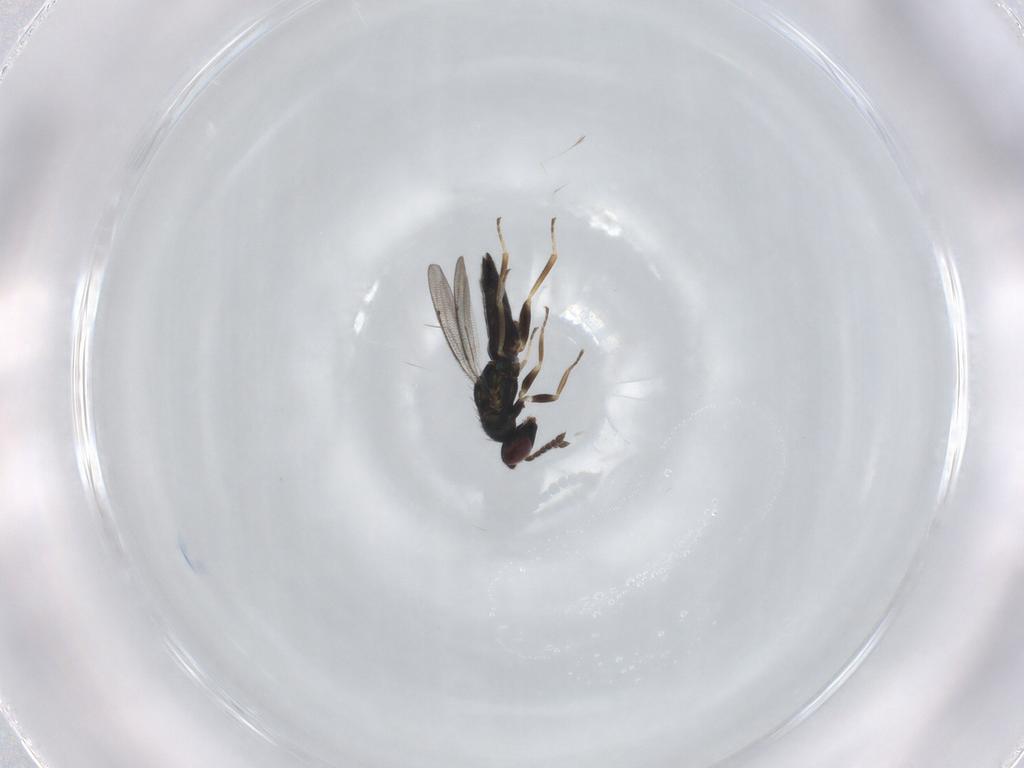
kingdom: Animalia
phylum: Arthropoda
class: Insecta
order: Hymenoptera
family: Eulophidae
